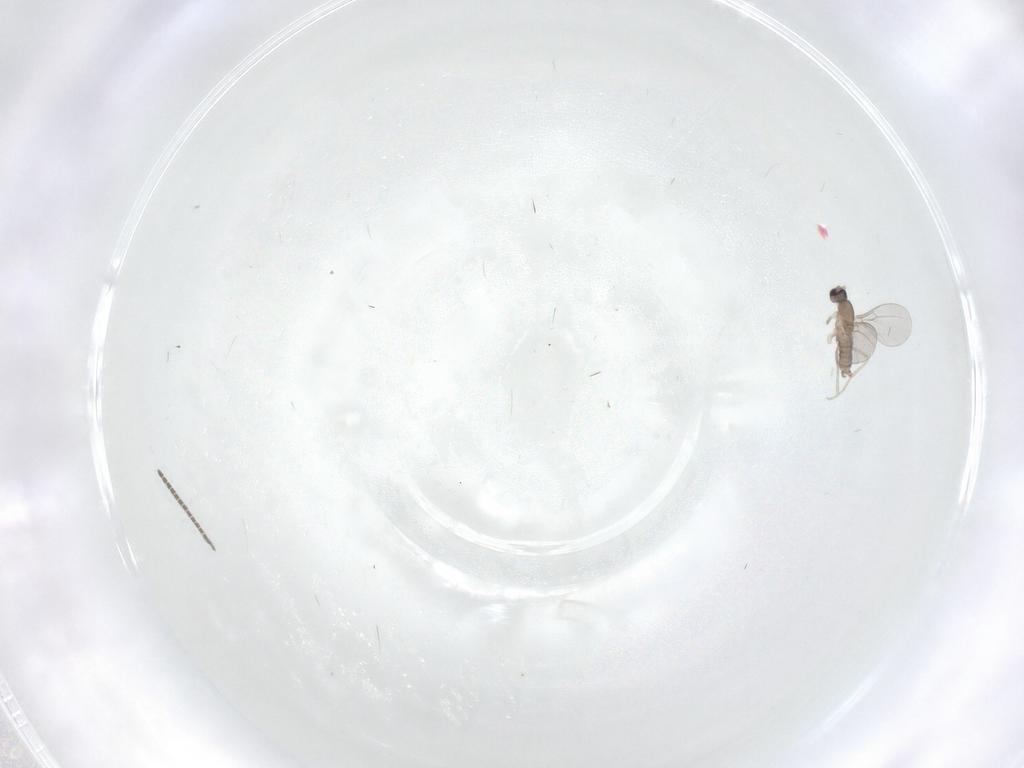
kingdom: Animalia
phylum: Arthropoda
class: Insecta
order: Diptera
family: Cecidomyiidae
